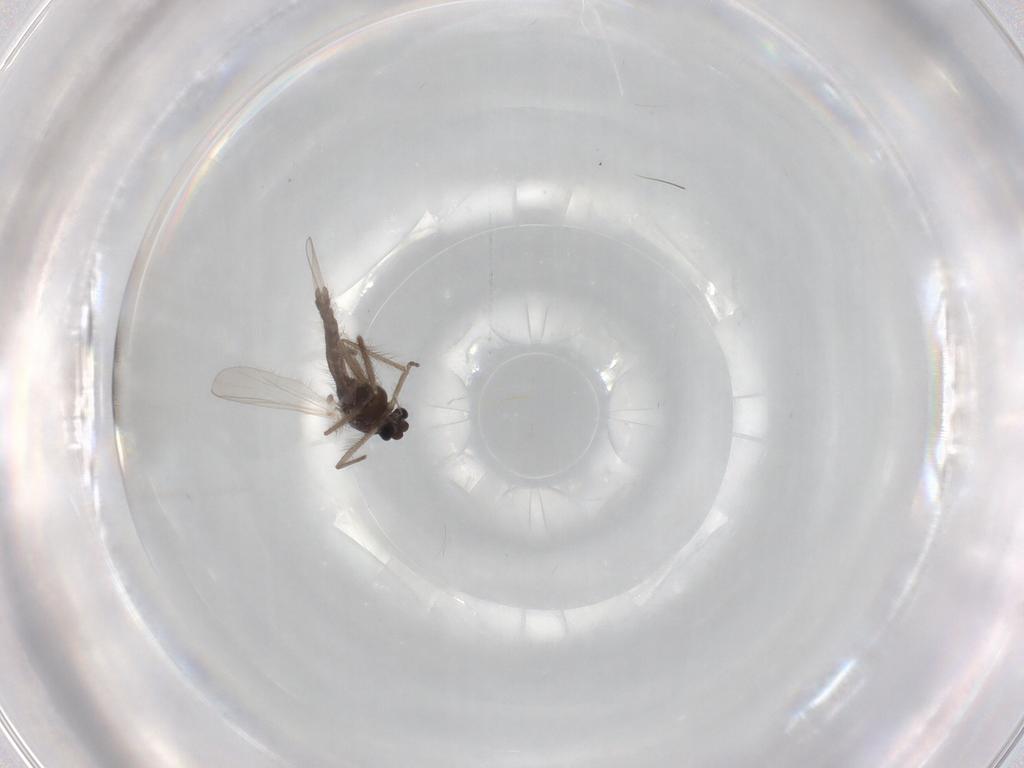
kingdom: Animalia
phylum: Arthropoda
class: Insecta
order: Diptera
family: Chironomidae
